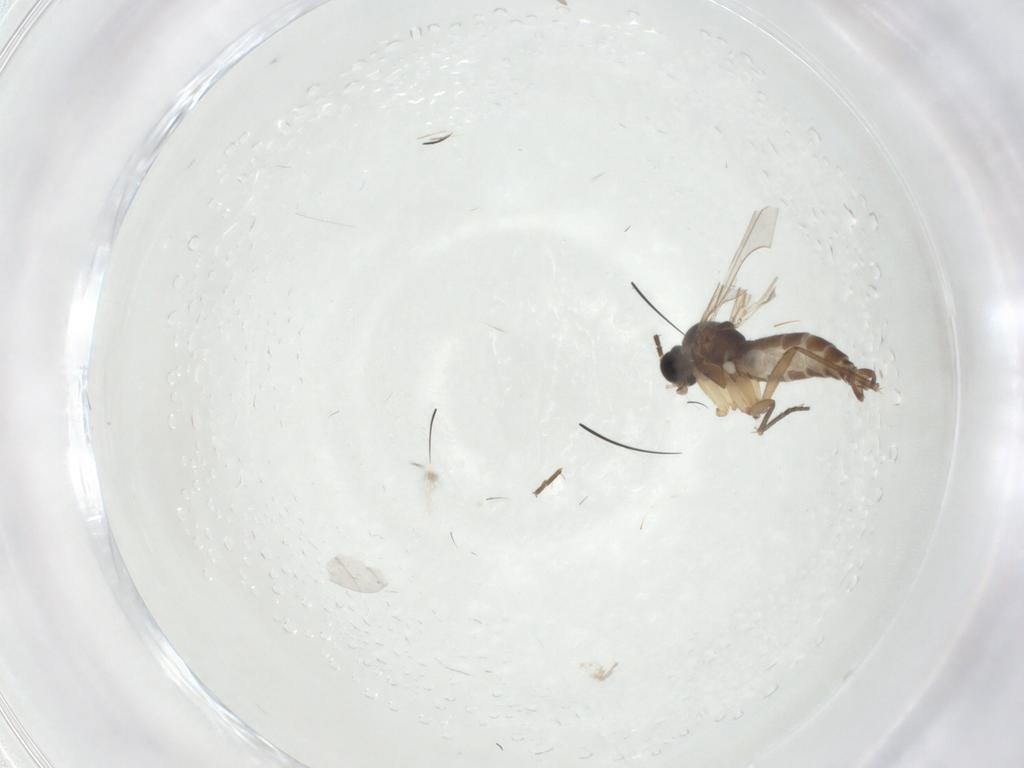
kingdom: Animalia
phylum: Arthropoda
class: Insecta
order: Diptera
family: Sciaridae
